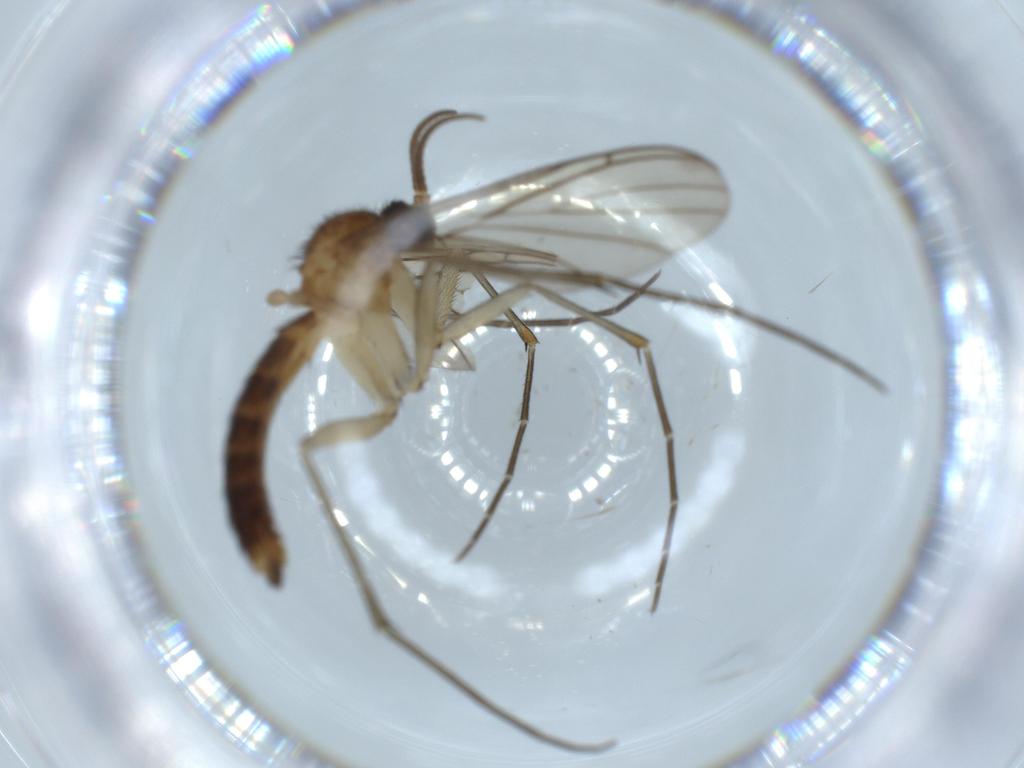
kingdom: Animalia
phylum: Arthropoda
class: Insecta
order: Diptera
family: Keroplatidae
